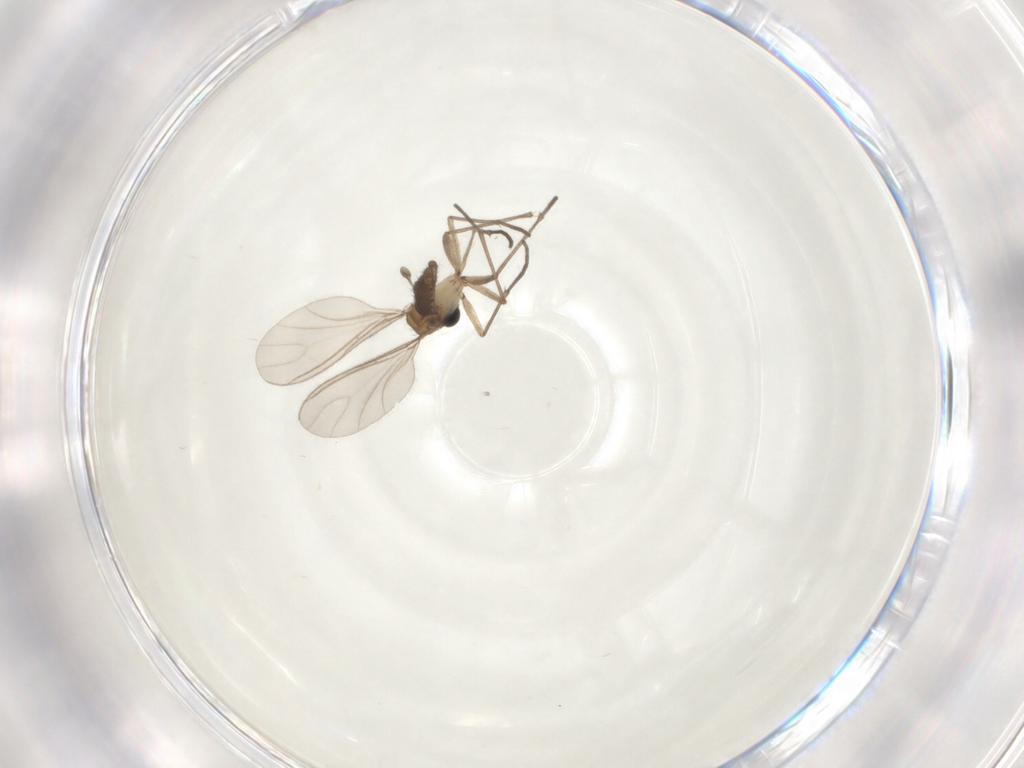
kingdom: Animalia
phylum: Arthropoda
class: Insecta
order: Diptera
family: Sciaridae
